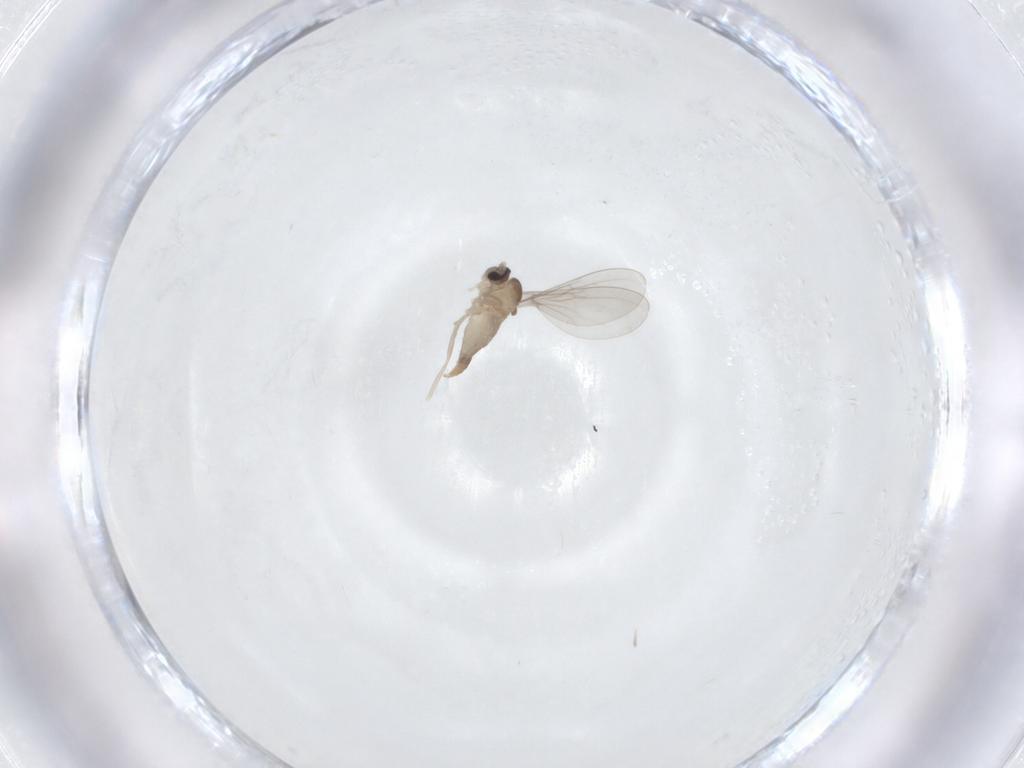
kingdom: Animalia
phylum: Arthropoda
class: Insecta
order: Diptera
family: Cecidomyiidae
